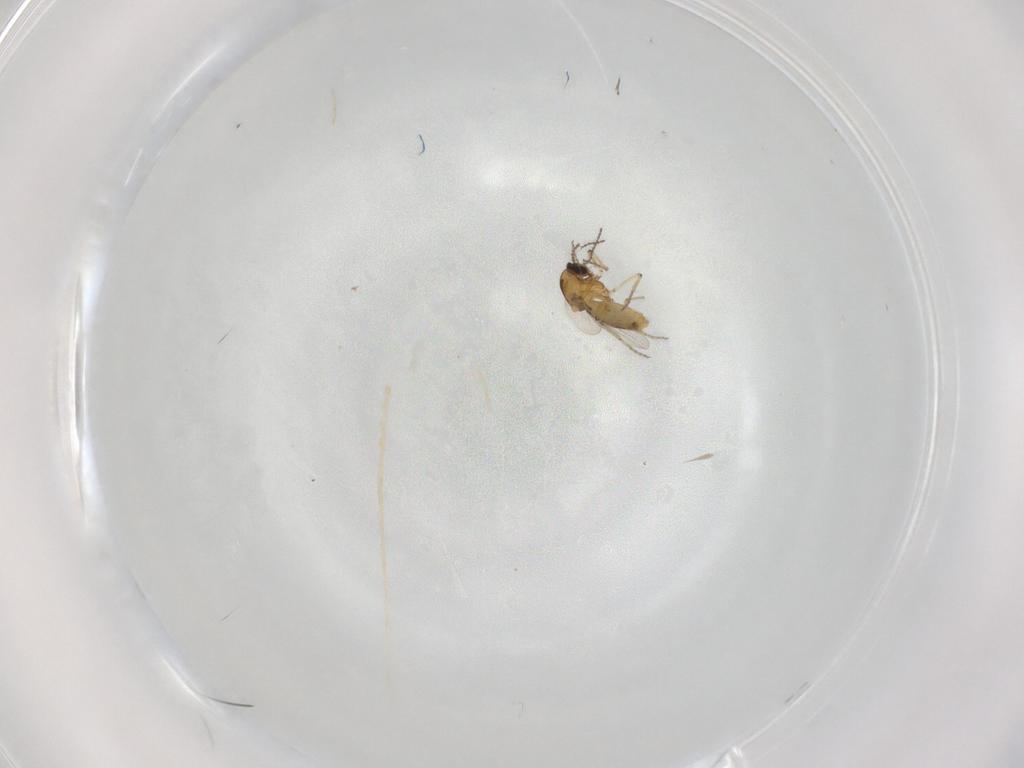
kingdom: Animalia
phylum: Arthropoda
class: Insecta
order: Diptera
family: Ceratopogonidae
